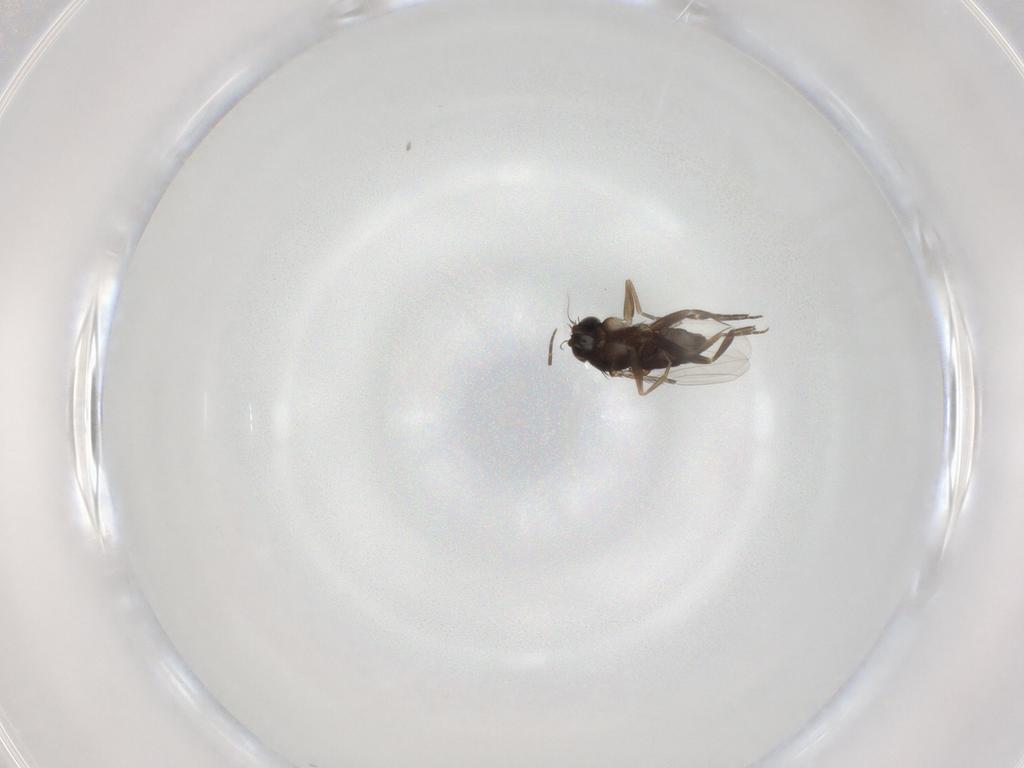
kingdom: Animalia
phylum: Arthropoda
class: Insecta
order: Diptera
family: Phoridae
